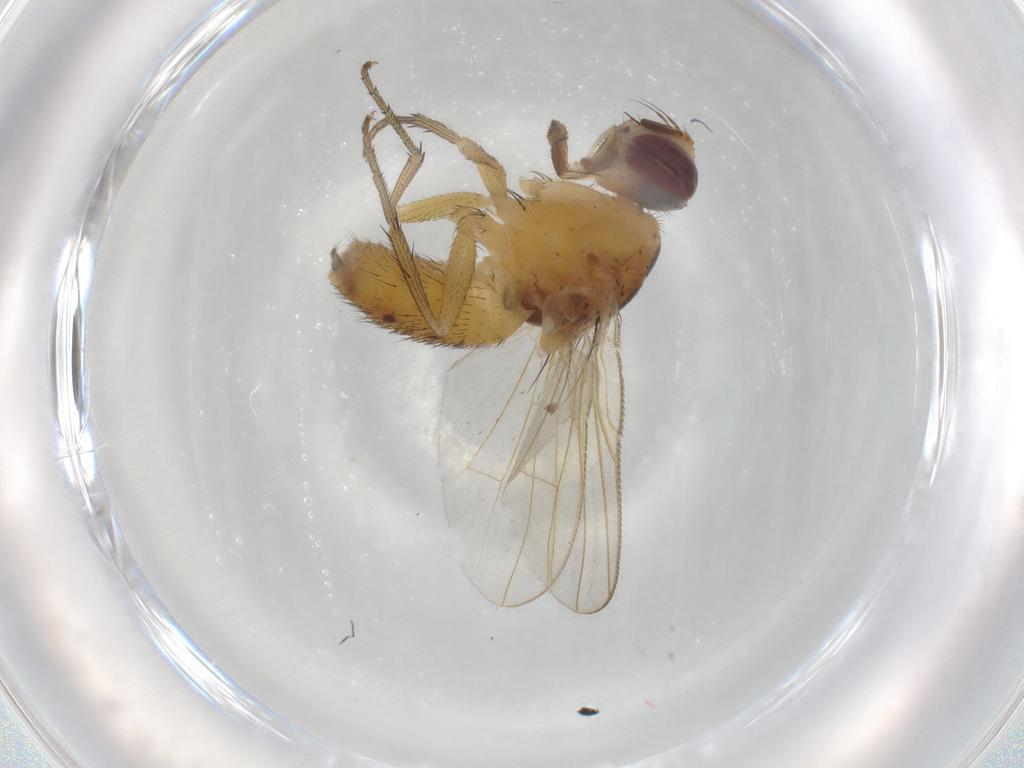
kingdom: Animalia
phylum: Arthropoda
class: Insecta
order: Diptera
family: Muscidae
